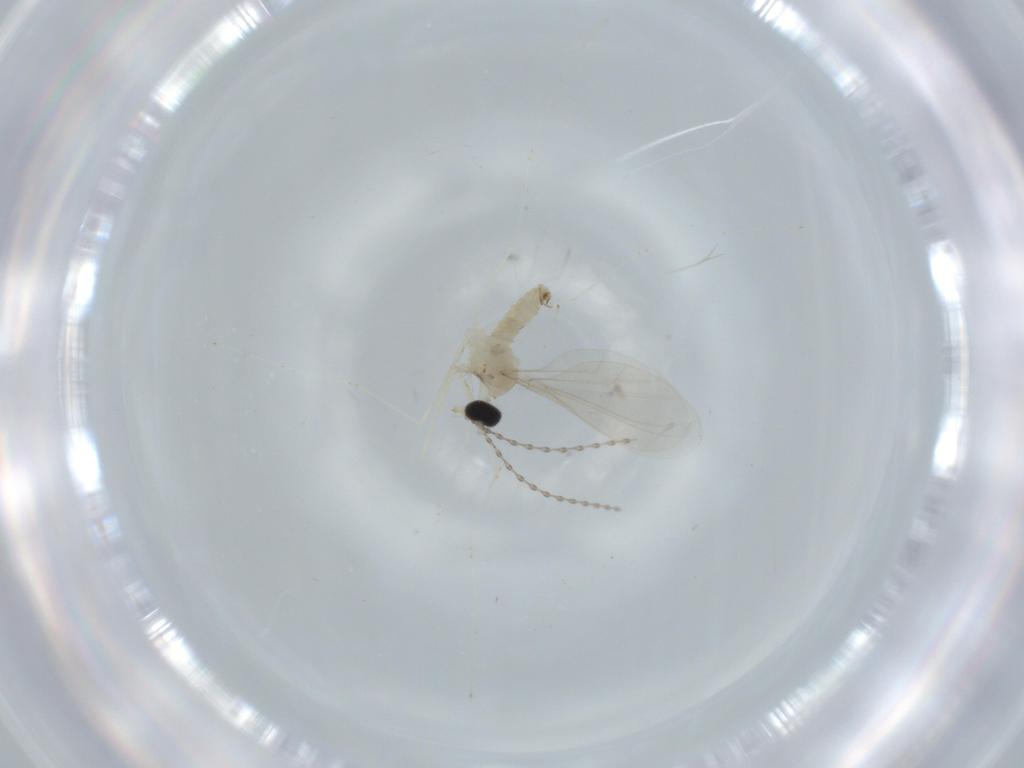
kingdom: Animalia
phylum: Arthropoda
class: Insecta
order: Diptera
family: Cecidomyiidae
